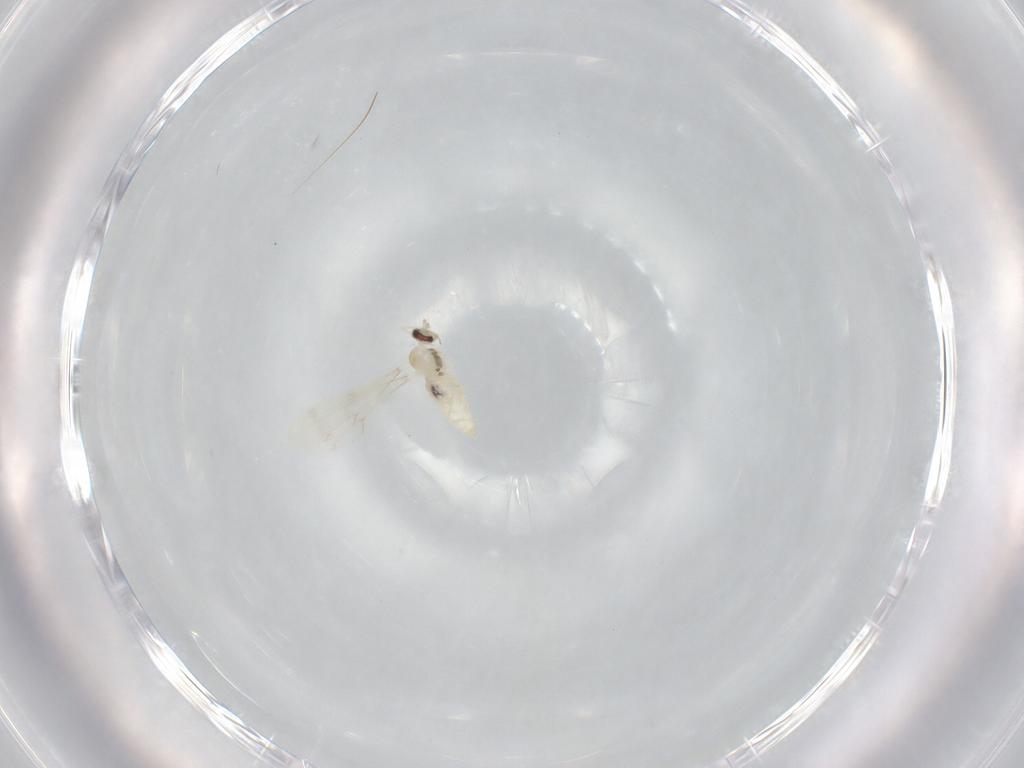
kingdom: Animalia
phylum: Arthropoda
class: Insecta
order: Diptera
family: Cecidomyiidae
